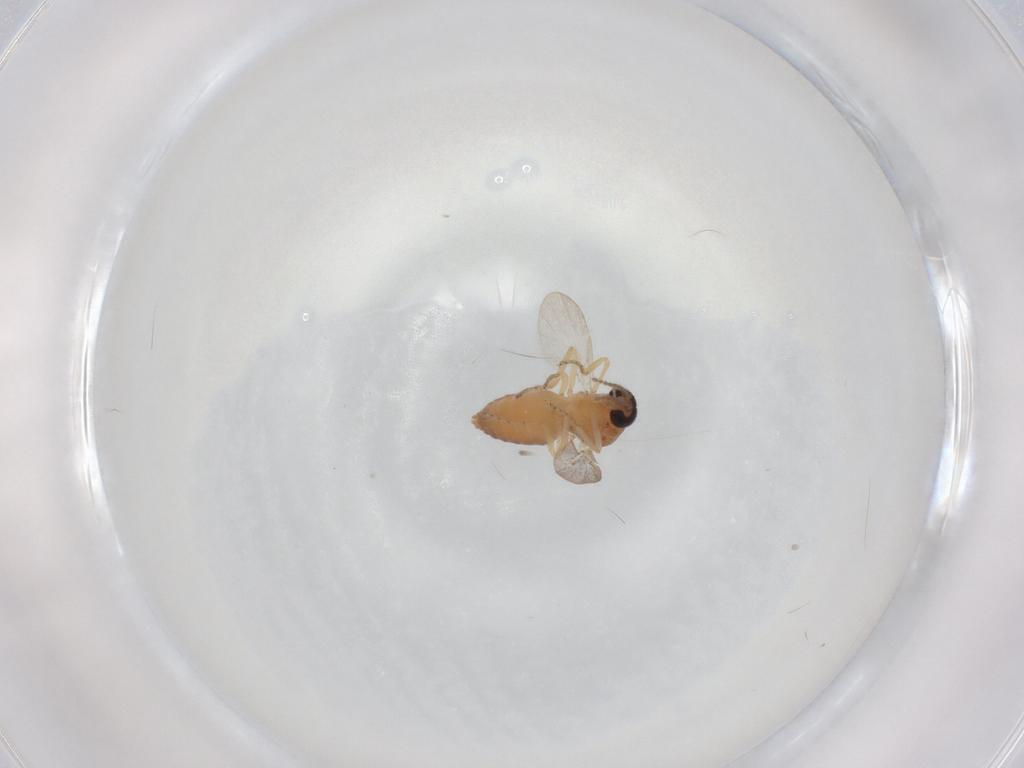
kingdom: Animalia
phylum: Arthropoda
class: Insecta
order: Diptera
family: Ceratopogonidae
